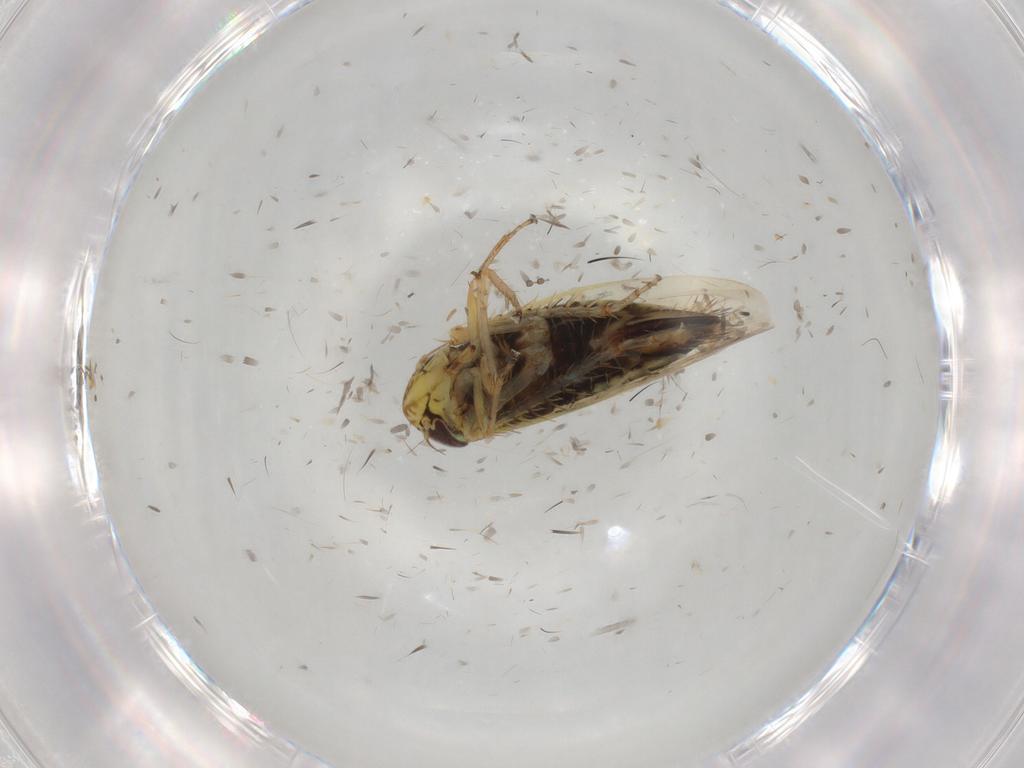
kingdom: Animalia
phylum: Arthropoda
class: Insecta
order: Hemiptera
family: Cicadellidae
